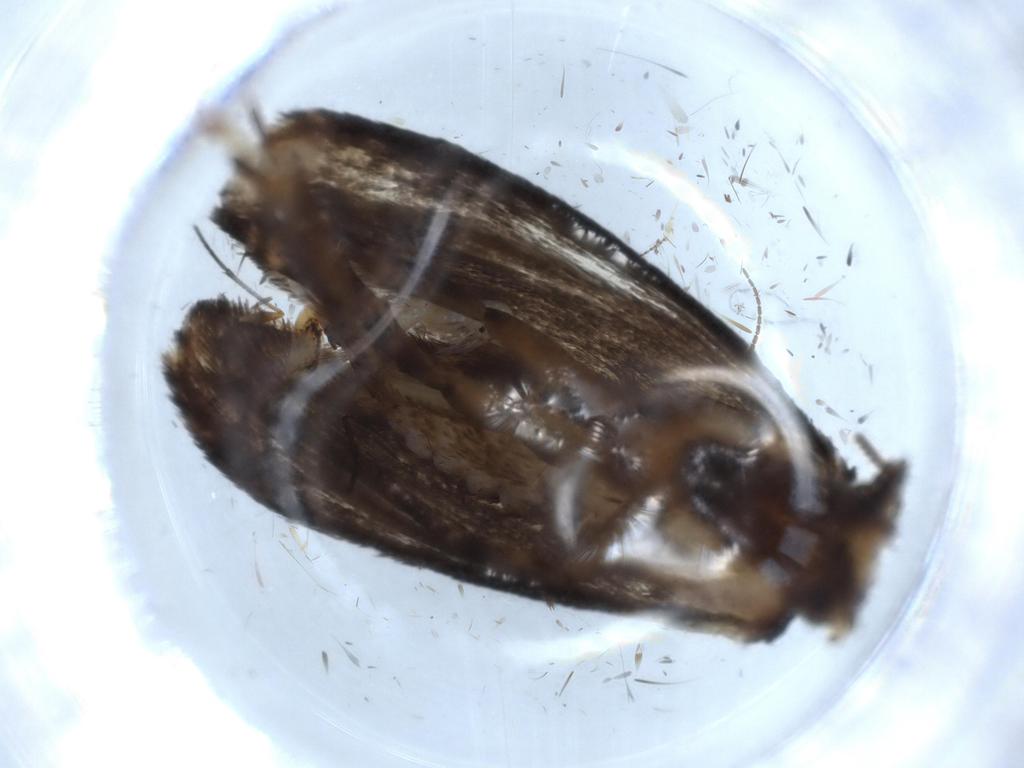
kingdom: Animalia
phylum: Arthropoda
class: Insecta
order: Lepidoptera
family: Tineidae
